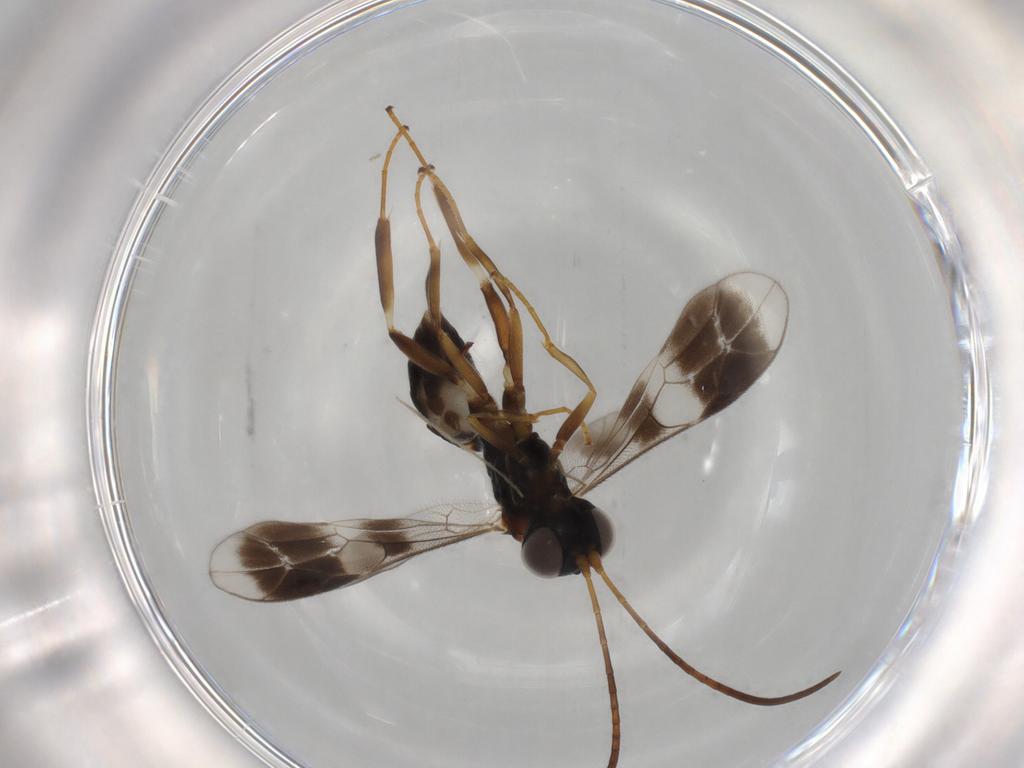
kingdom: Animalia
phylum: Arthropoda
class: Insecta
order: Hymenoptera
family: Ichneumonidae
